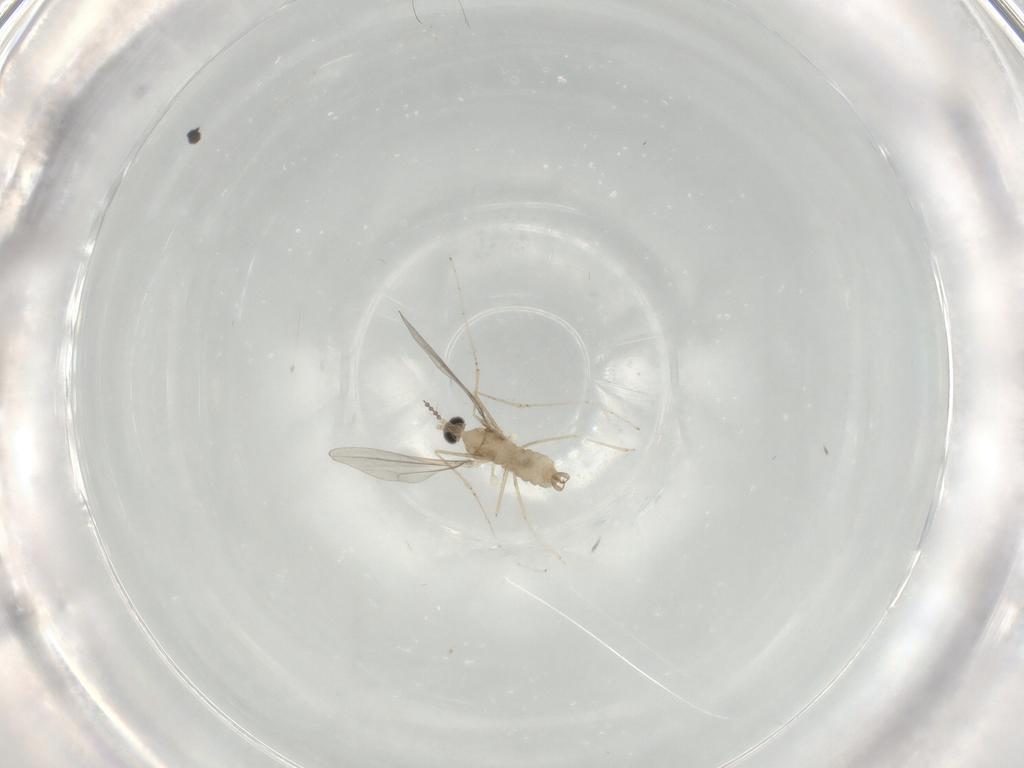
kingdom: Animalia
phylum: Arthropoda
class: Insecta
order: Diptera
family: Cecidomyiidae
